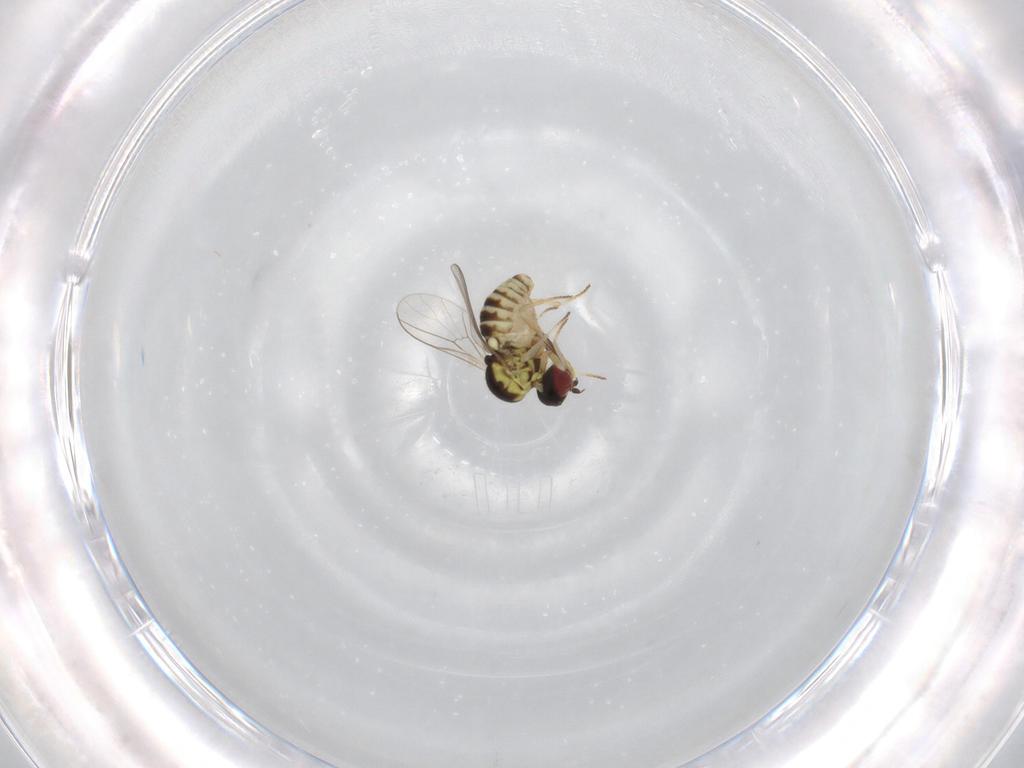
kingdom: Animalia
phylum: Arthropoda
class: Insecta
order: Diptera
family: Bombyliidae
